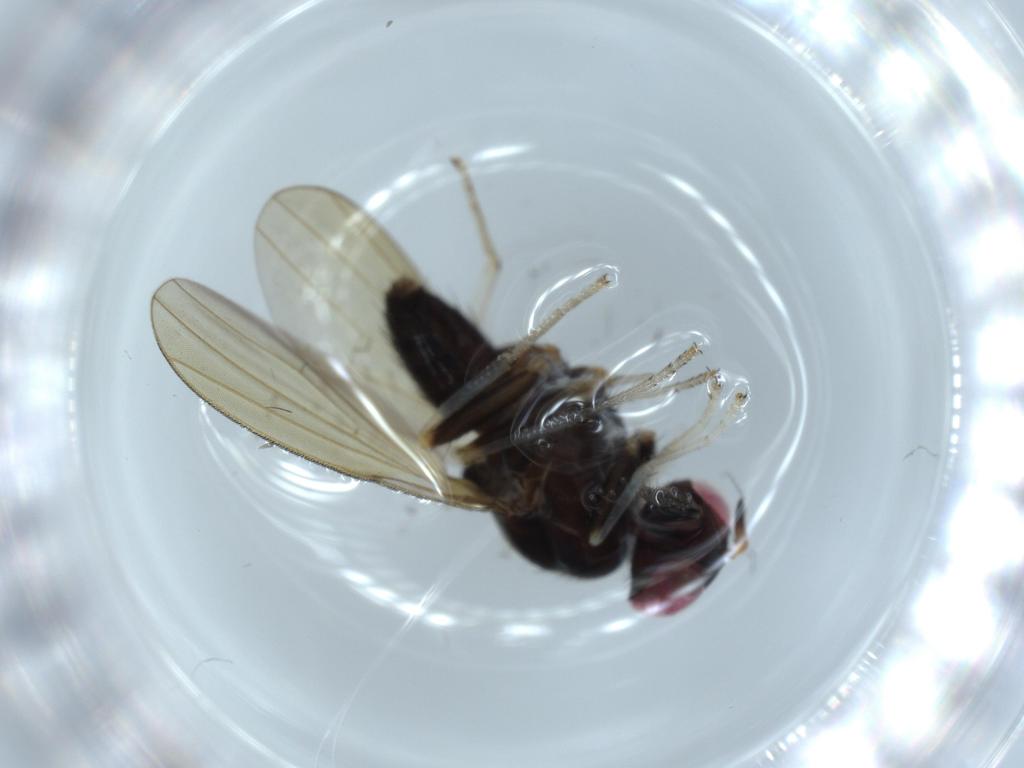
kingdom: Animalia
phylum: Arthropoda
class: Insecta
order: Diptera
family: Cecidomyiidae
